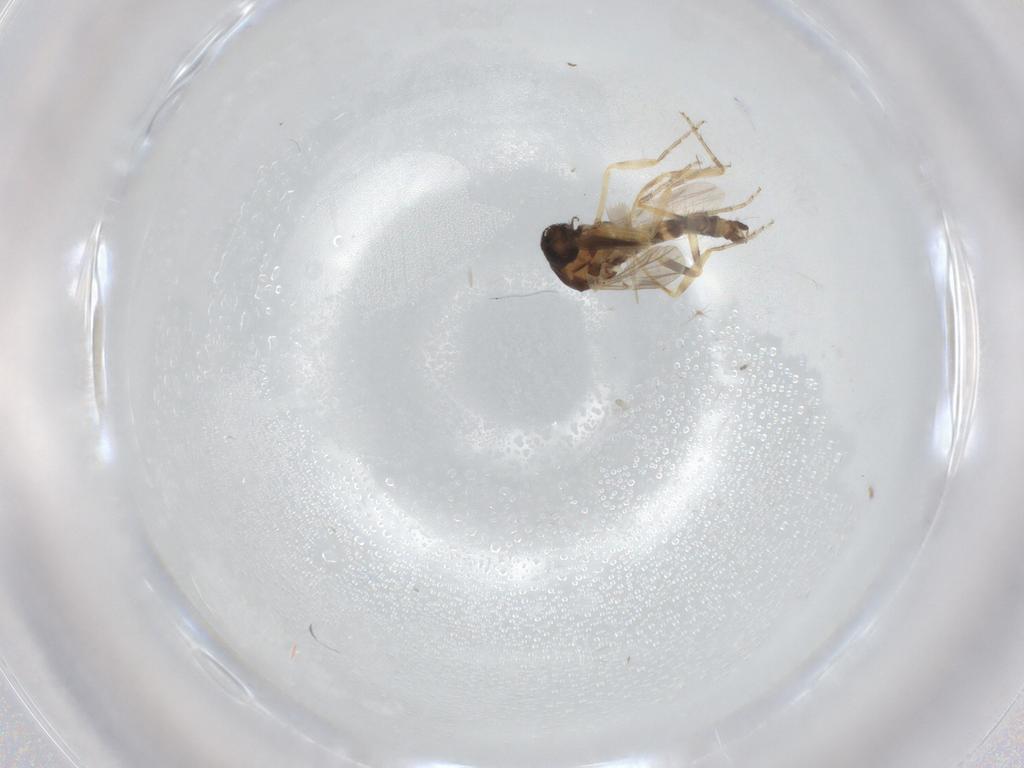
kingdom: Animalia
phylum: Arthropoda
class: Insecta
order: Diptera
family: Ceratopogonidae
